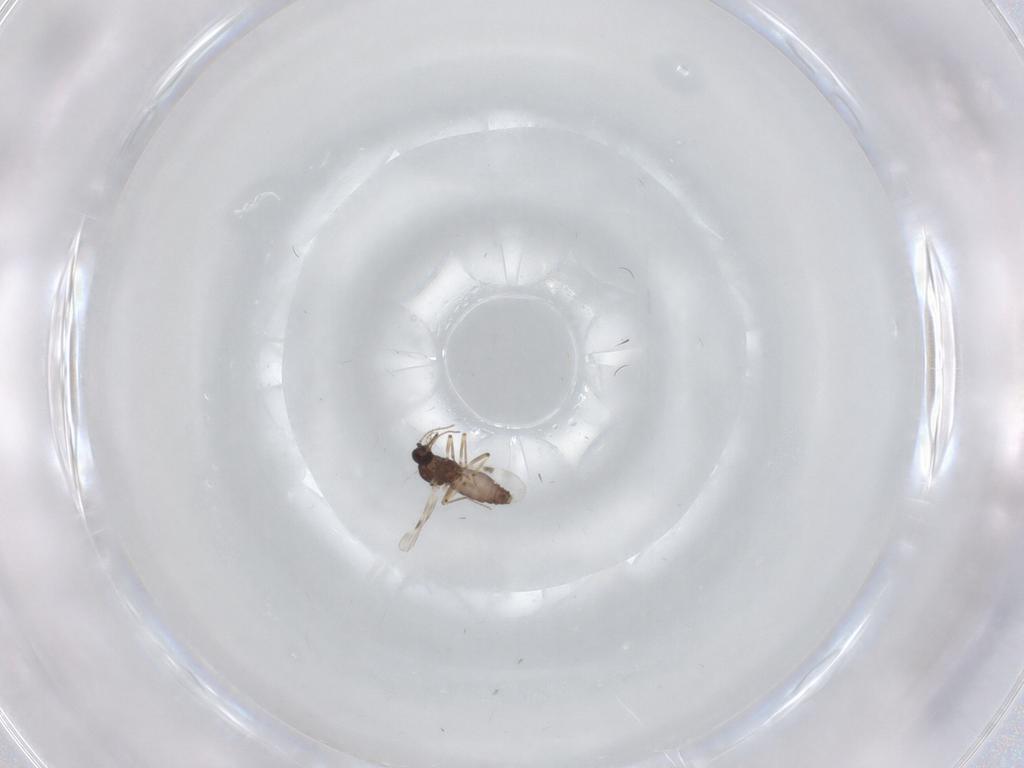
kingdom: Animalia
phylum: Arthropoda
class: Insecta
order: Diptera
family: Cecidomyiidae
